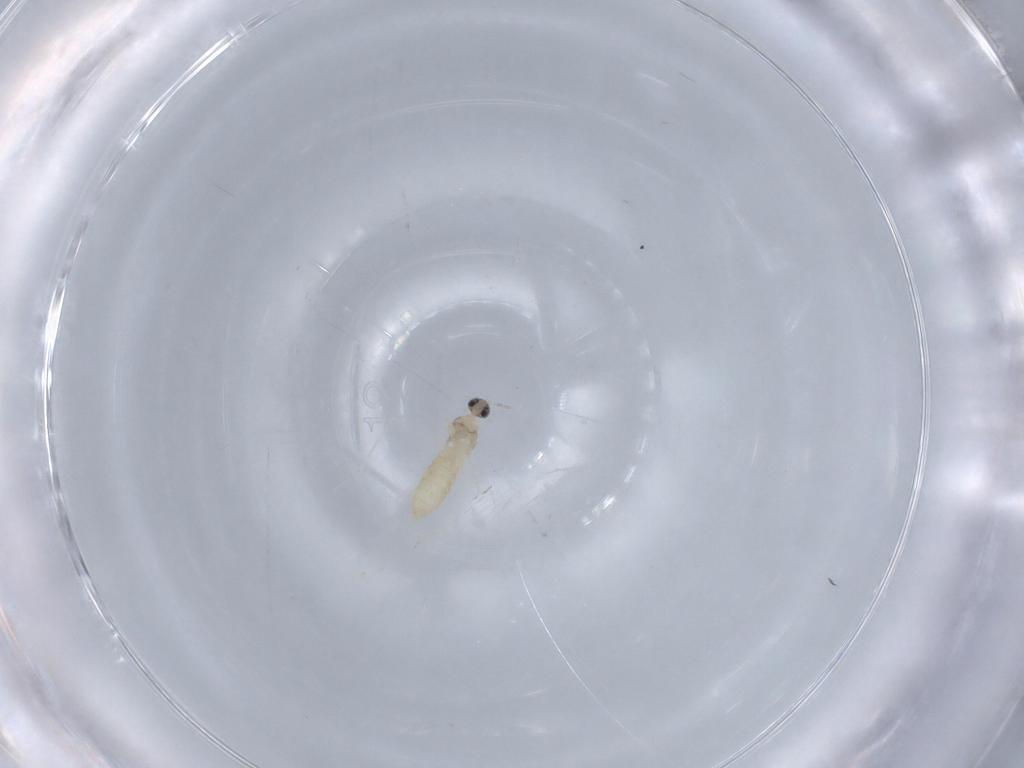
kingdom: Animalia
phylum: Arthropoda
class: Insecta
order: Diptera
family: Cecidomyiidae
